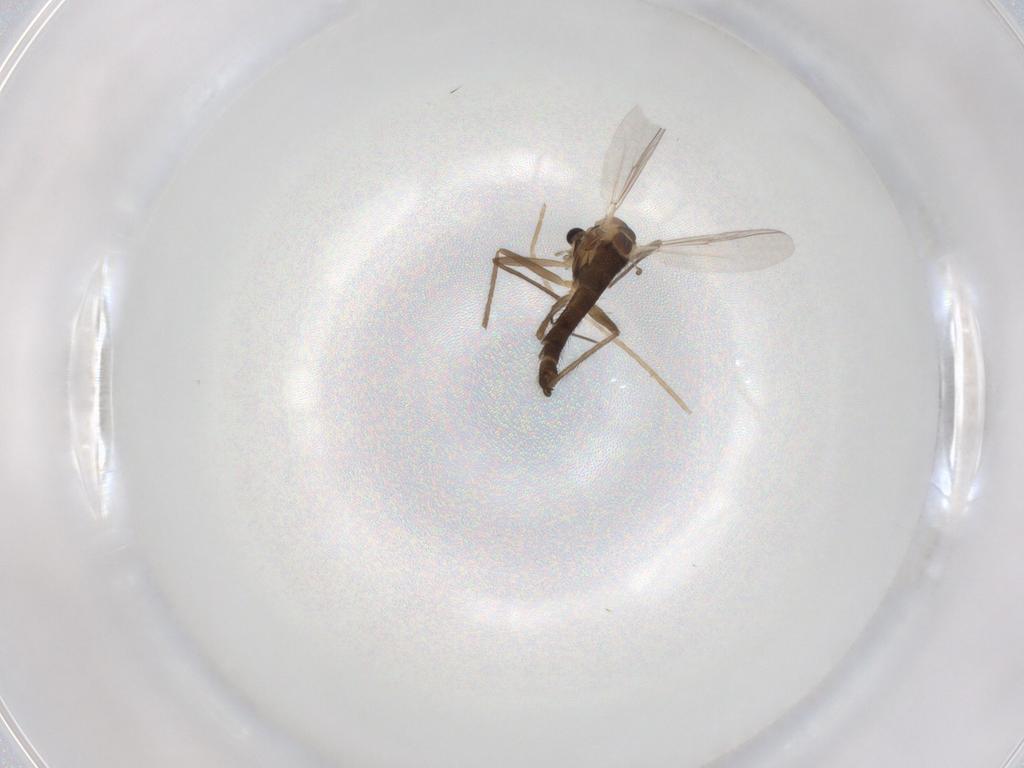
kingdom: Animalia
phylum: Arthropoda
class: Insecta
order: Diptera
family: Chironomidae
